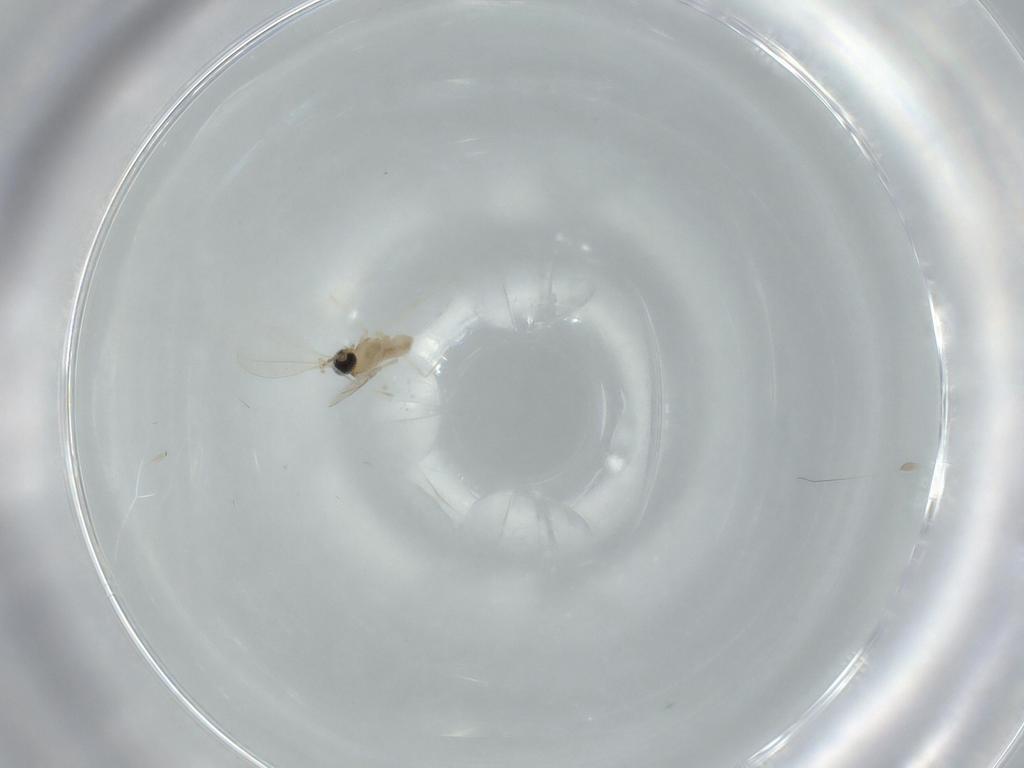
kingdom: Animalia
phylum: Arthropoda
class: Insecta
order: Diptera
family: Cecidomyiidae
